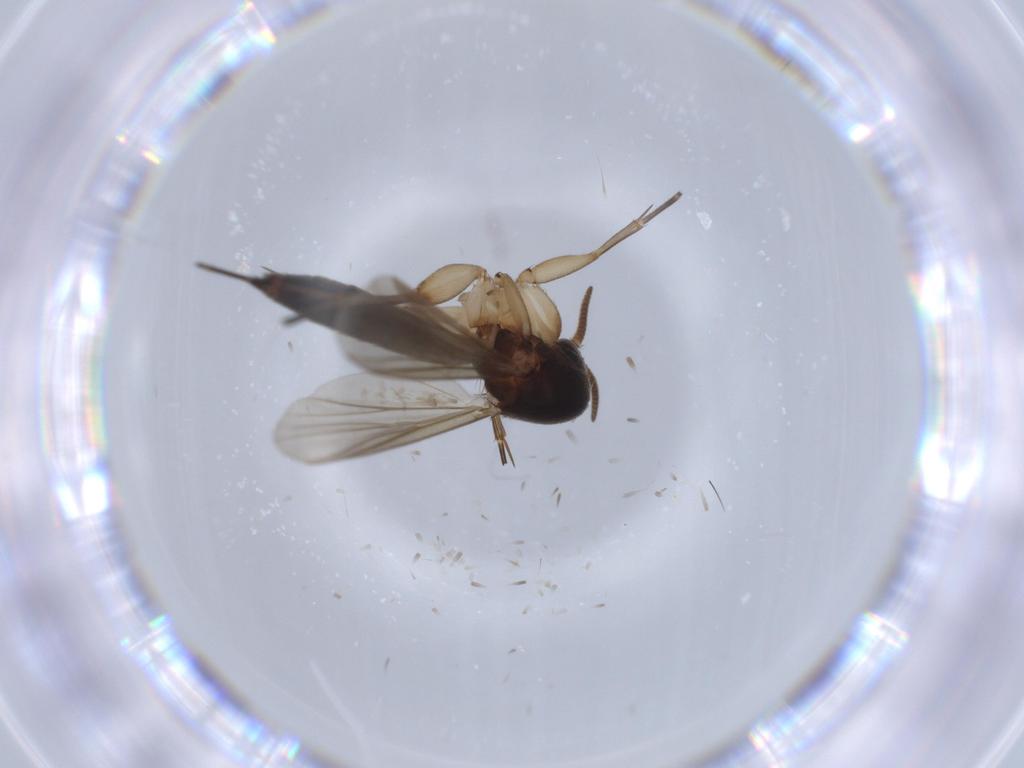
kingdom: Animalia
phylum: Arthropoda
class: Insecta
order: Diptera
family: Mycetophilidae
